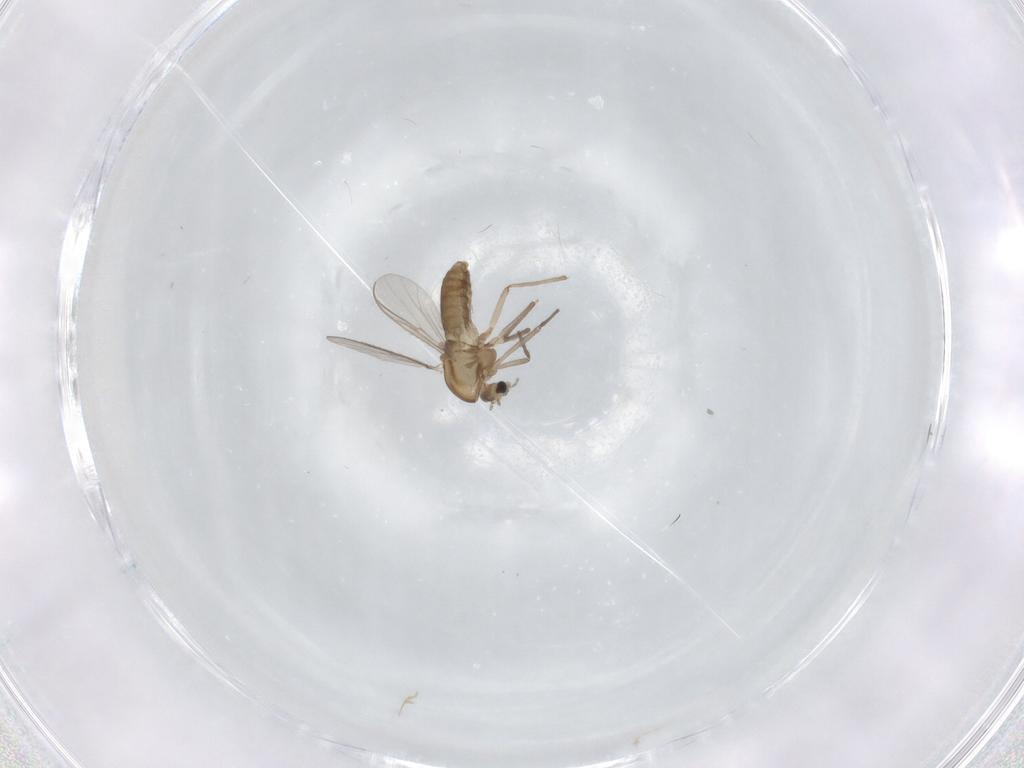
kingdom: Animalia
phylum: Arthropoda
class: Insecta
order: Diptera
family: Chironomidae
